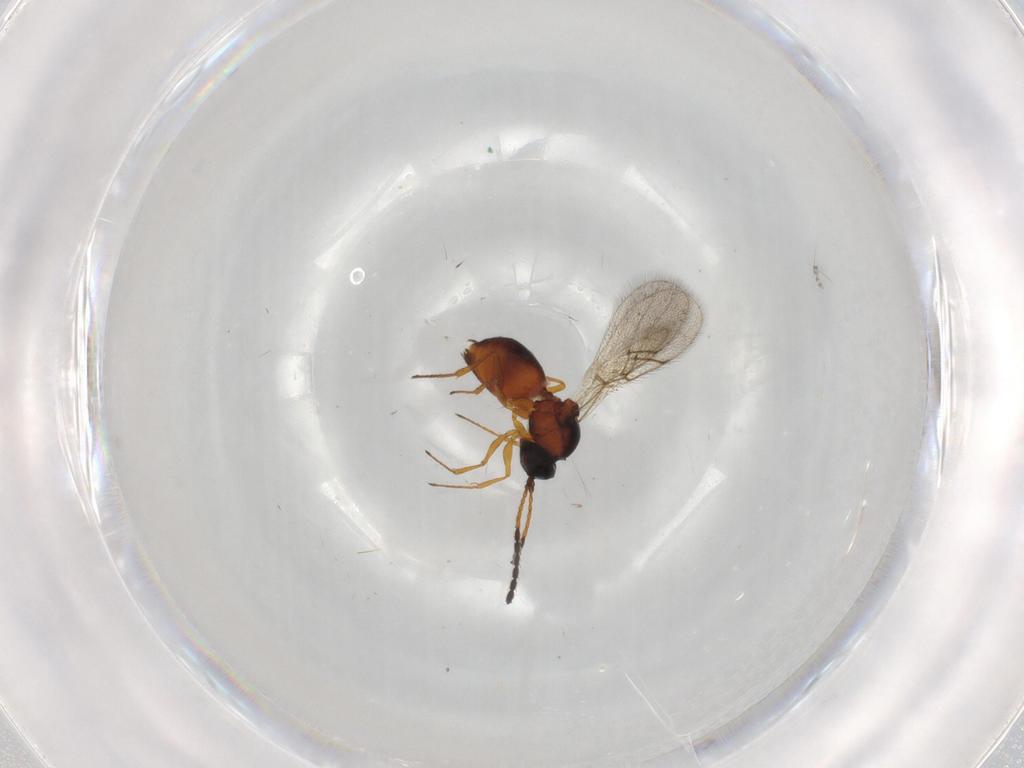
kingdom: Animalia
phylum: Arthropoda
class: Insecta
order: Hymenoptera
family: Figitidae
